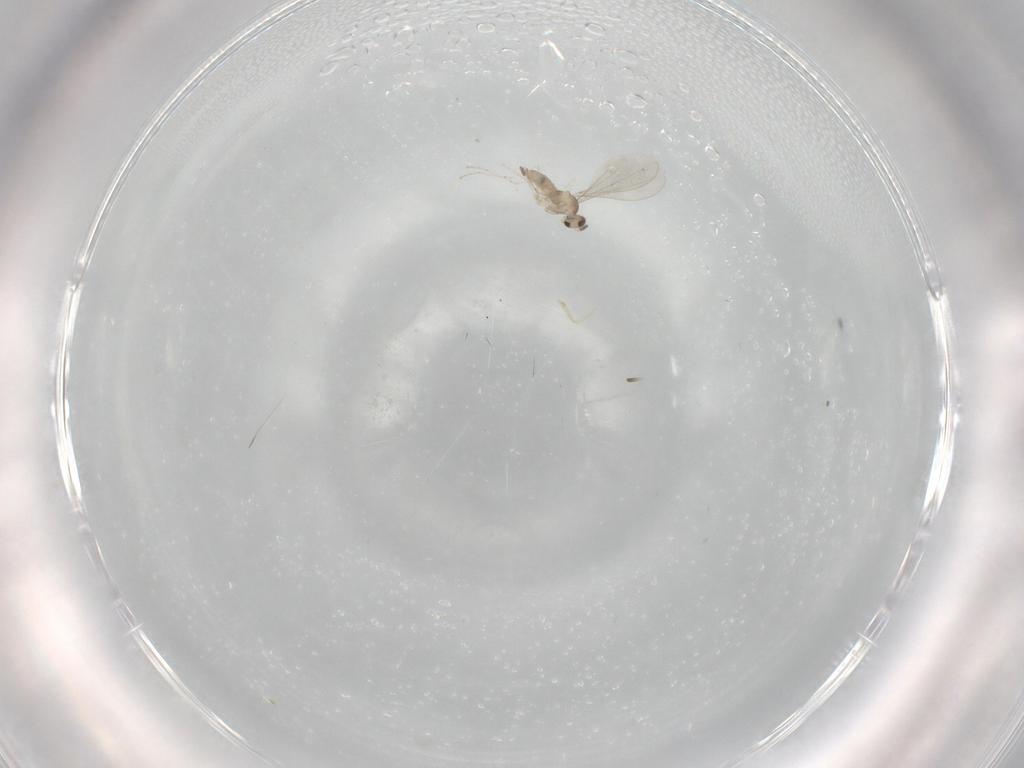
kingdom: Animalia
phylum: Arthropoda
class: Insecta
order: Diptera
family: Cecidomyiidae
